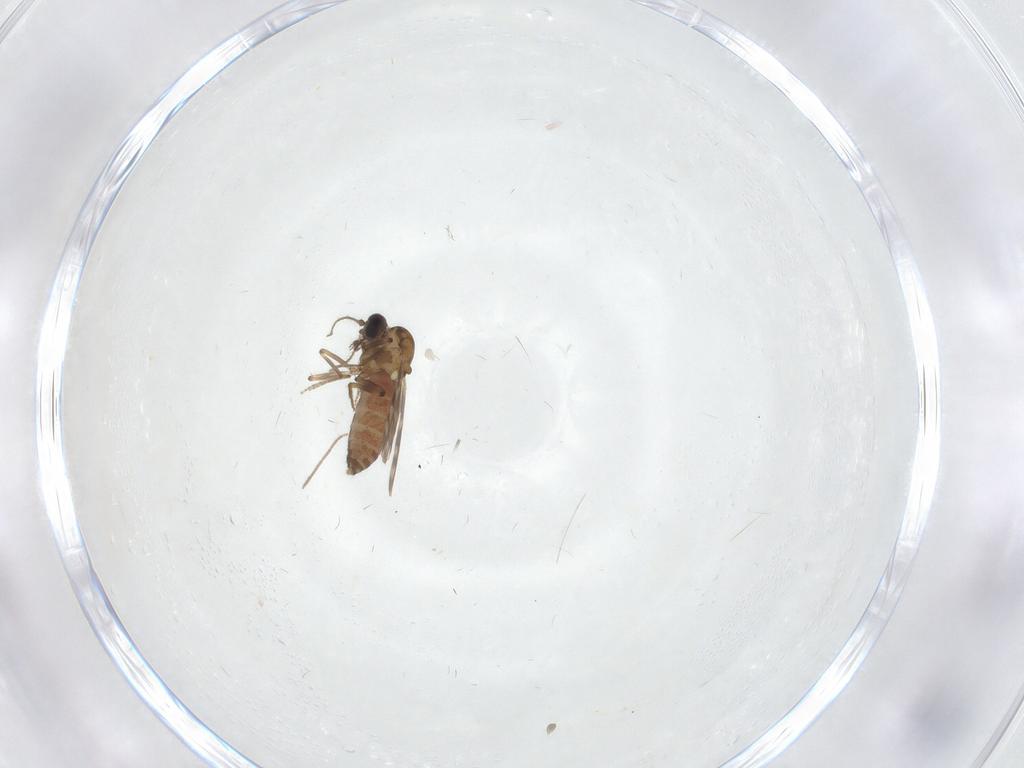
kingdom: Animalia
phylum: Arthropoda
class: Insecta
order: Diptera
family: Ceratopogonidae
